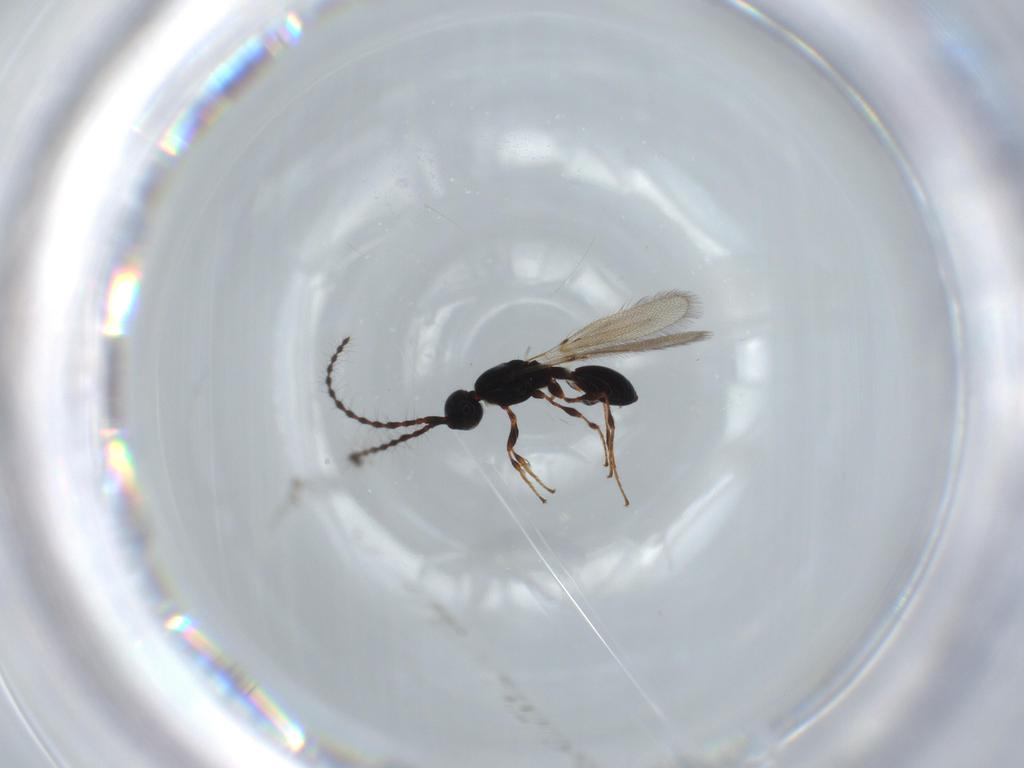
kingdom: Animalia
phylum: Arthropoda
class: Insecta
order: Hymenoptera
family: Diapriidae
